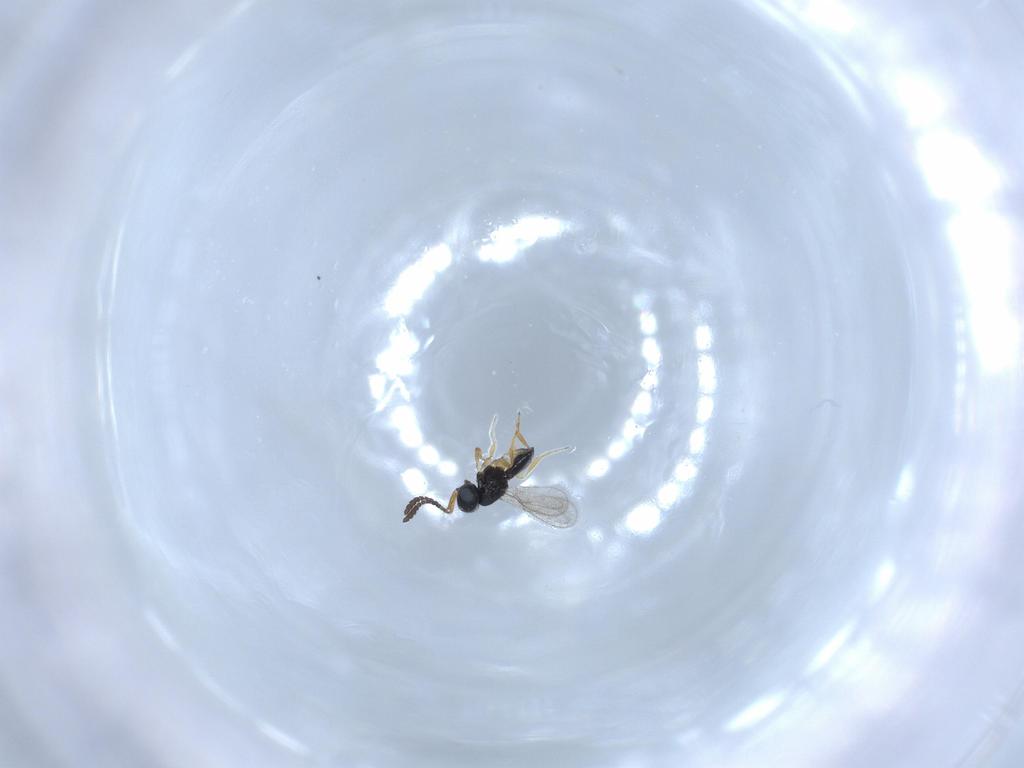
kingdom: Animalia
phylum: Arthropoda
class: Insecta
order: Hymenoptera
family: Scelionidae
